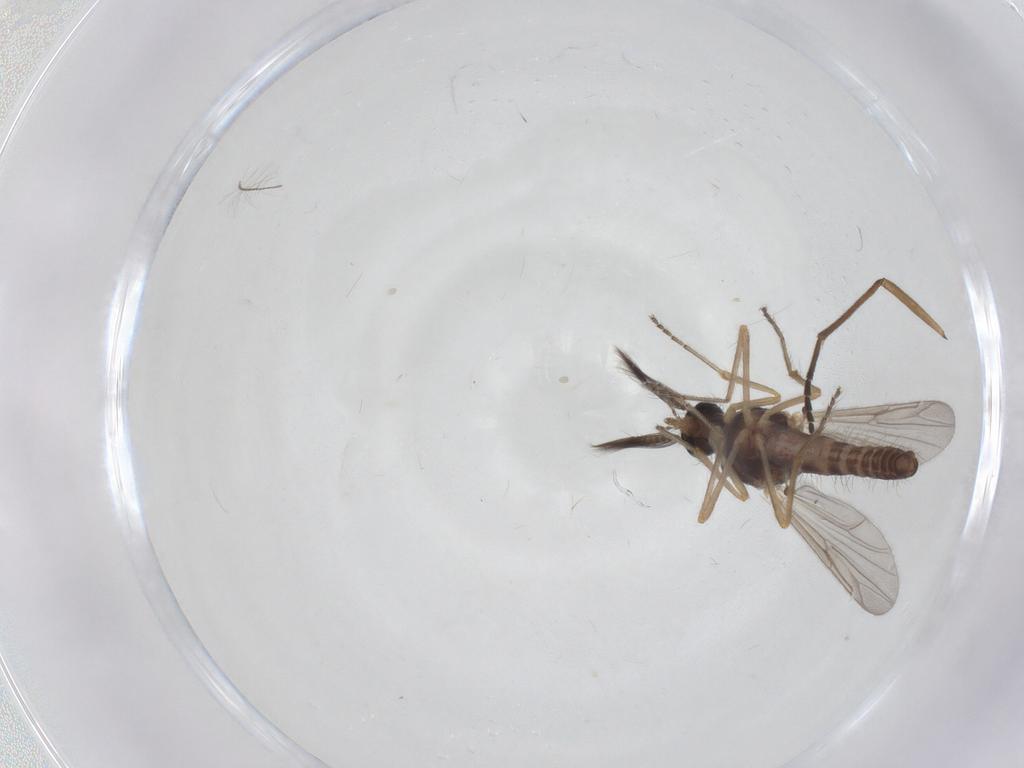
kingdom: Animalia
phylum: Arthropoda
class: Insecta
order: Diptera
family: Ceratopogonidae
